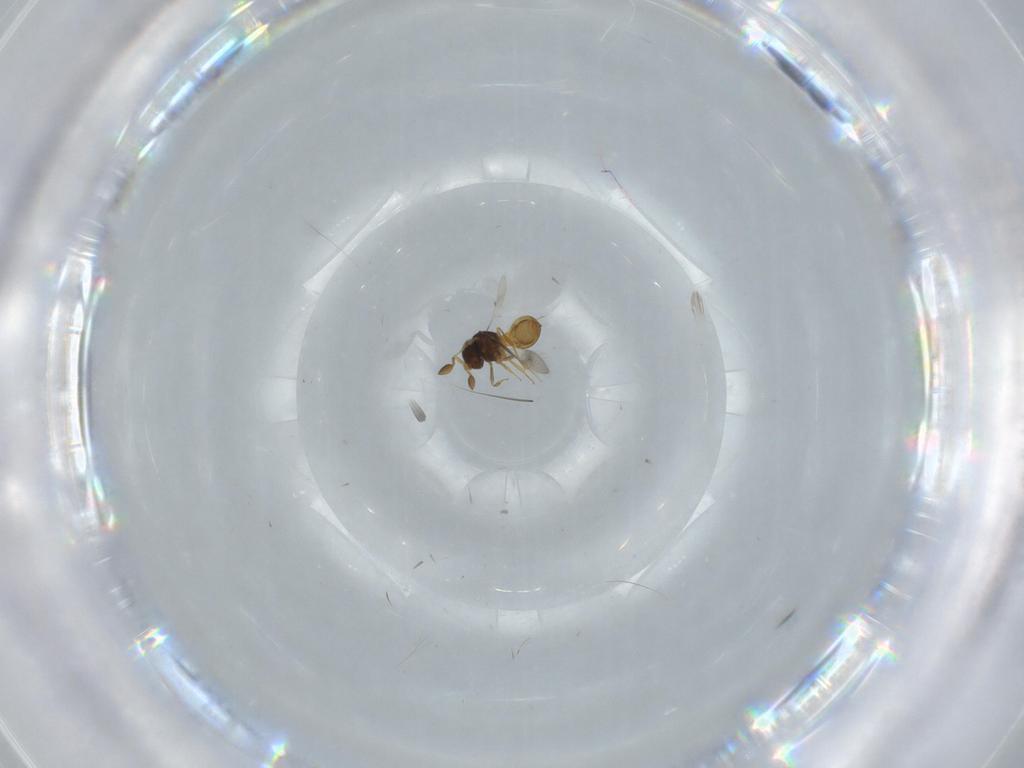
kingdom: Animalia
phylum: Arthropoda
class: Insecta
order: Hymenoptera
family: Scelionidae
